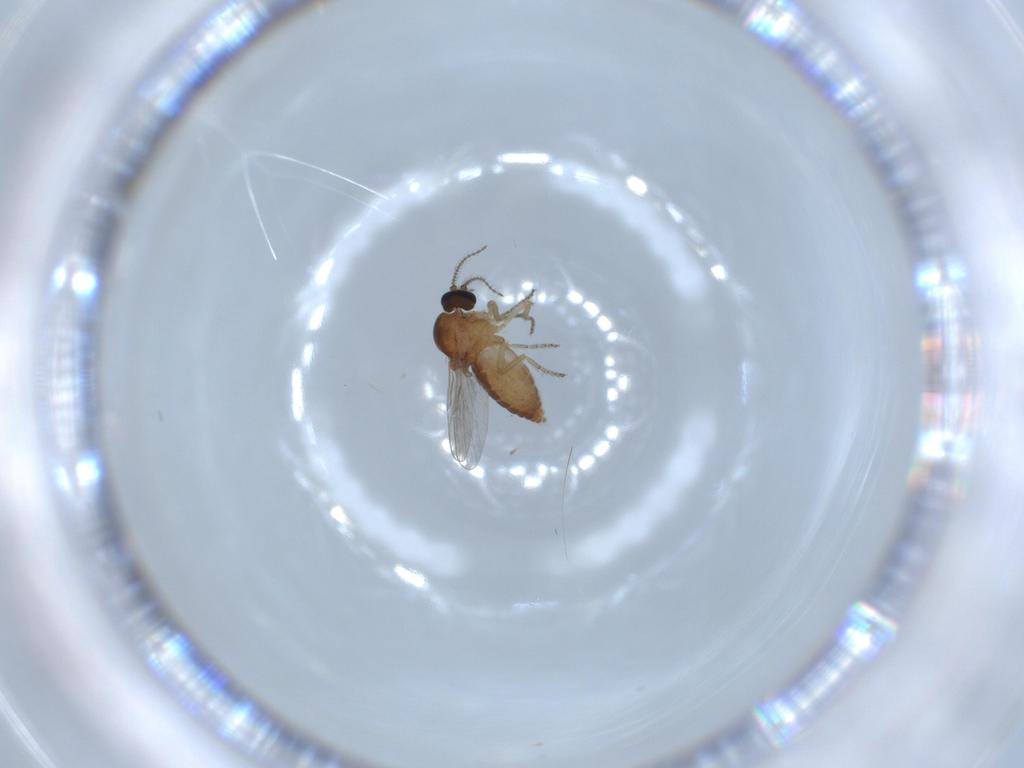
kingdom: Animalia
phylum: Arthropoda
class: Insecta
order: Diptera
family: Ceratopogonidae
